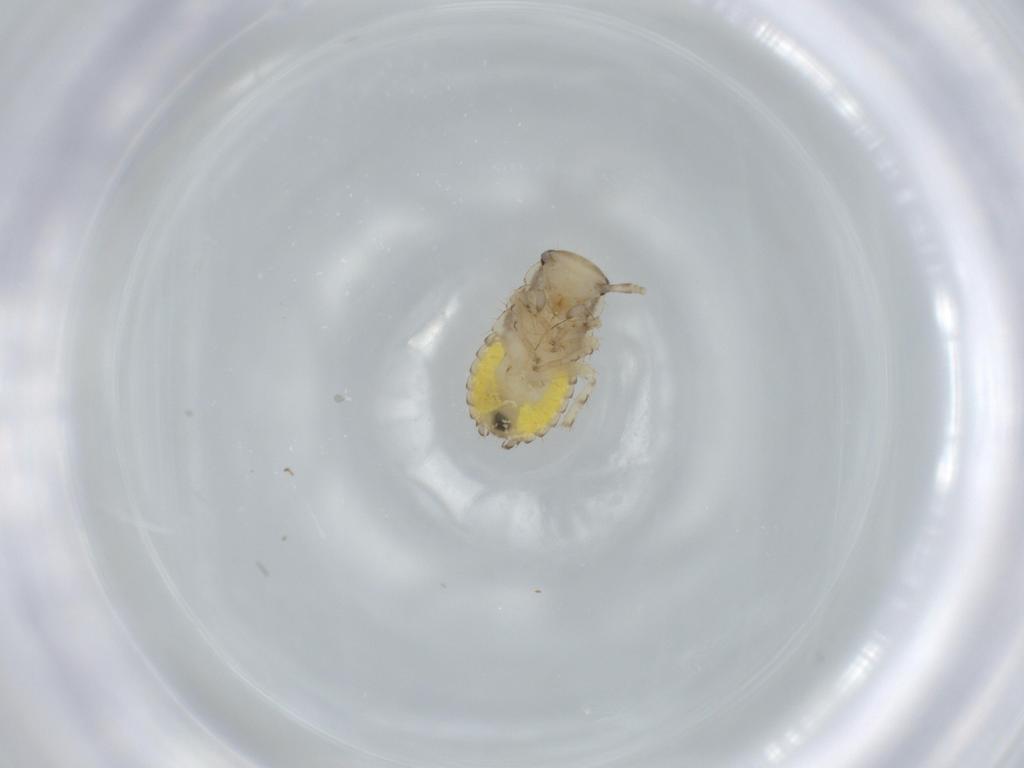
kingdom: Animalia
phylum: Arthropoda
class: Insecta
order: Blattodea
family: Ectobiidae
